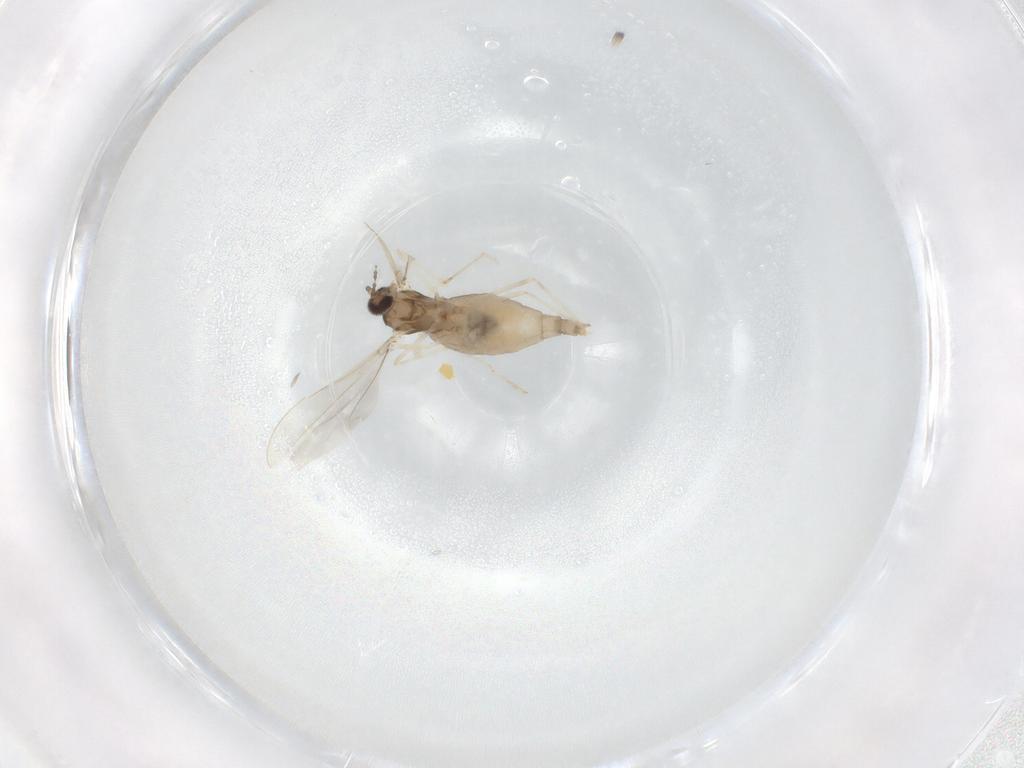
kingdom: Animalia
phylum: Arthropoda
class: Insecta
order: Diptera
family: Cecidomyiidae
